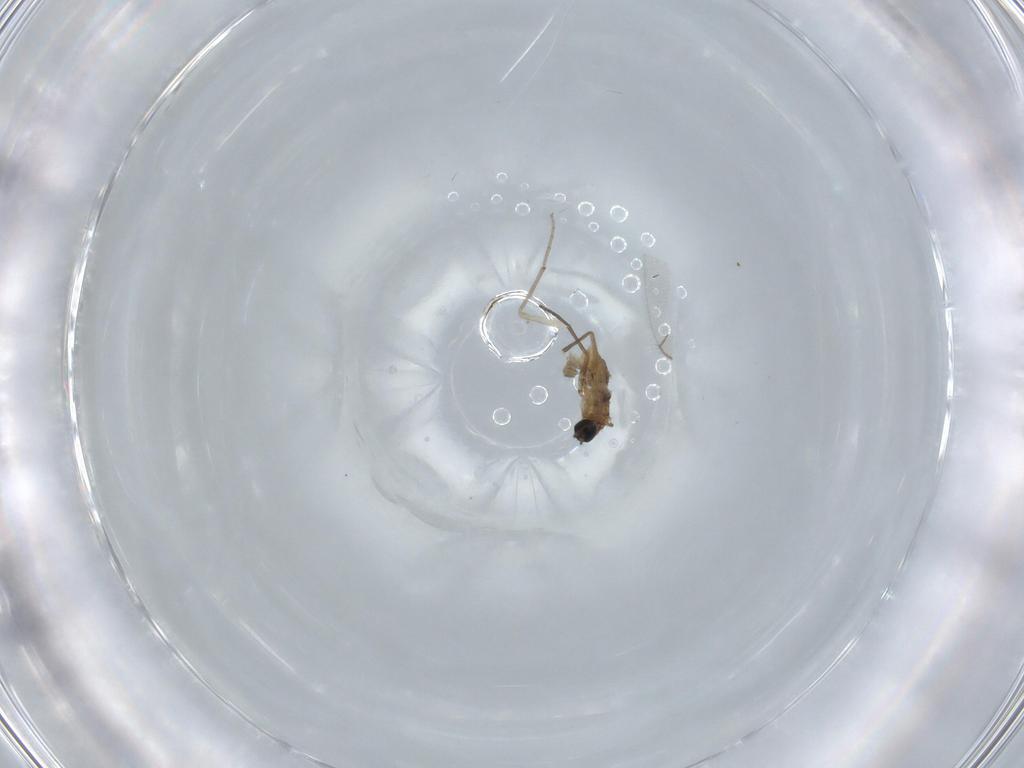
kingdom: Animalia
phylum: Arthropoda
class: Insecta
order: Diptera
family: Sciaridae
